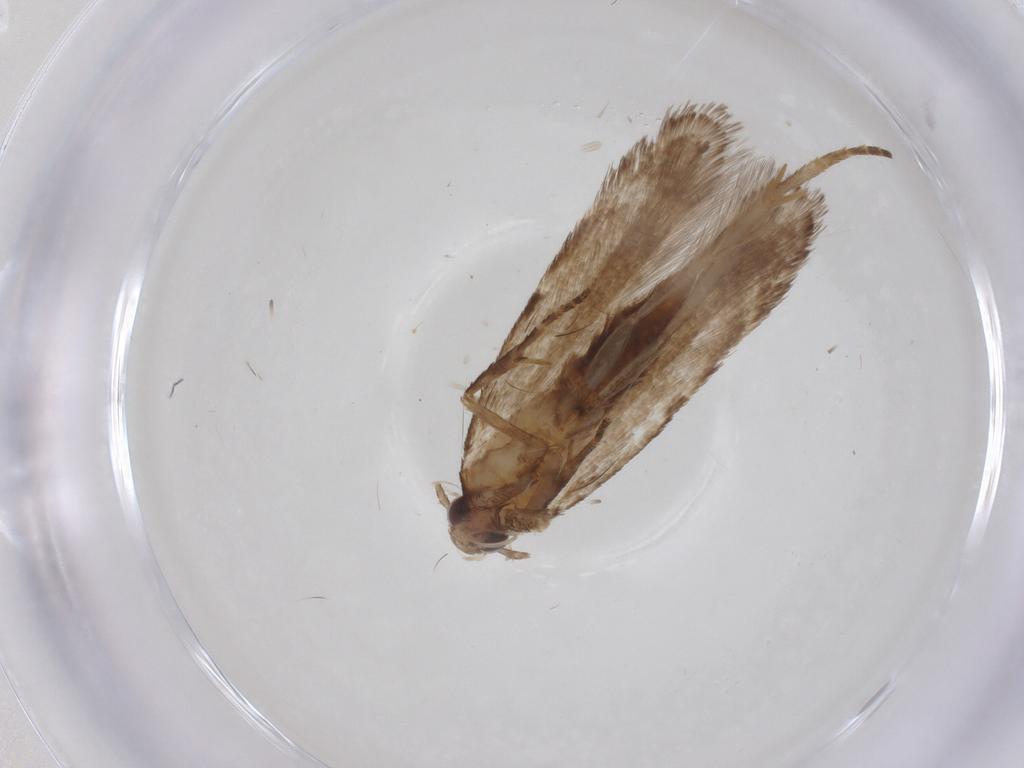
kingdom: Animalia
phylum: Arthropoda
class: Insecta
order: Lepidoptera
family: Gelechiidae
